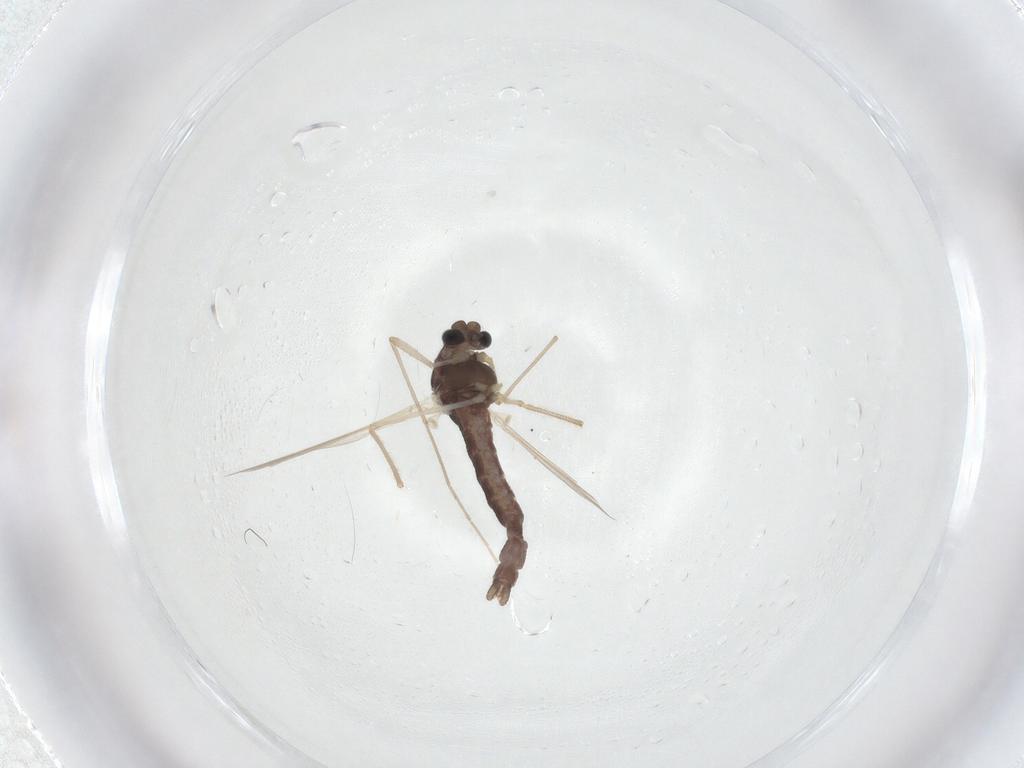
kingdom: Animalia
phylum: Arthropoda
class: Insecta
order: Diptera
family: Chironomidae
